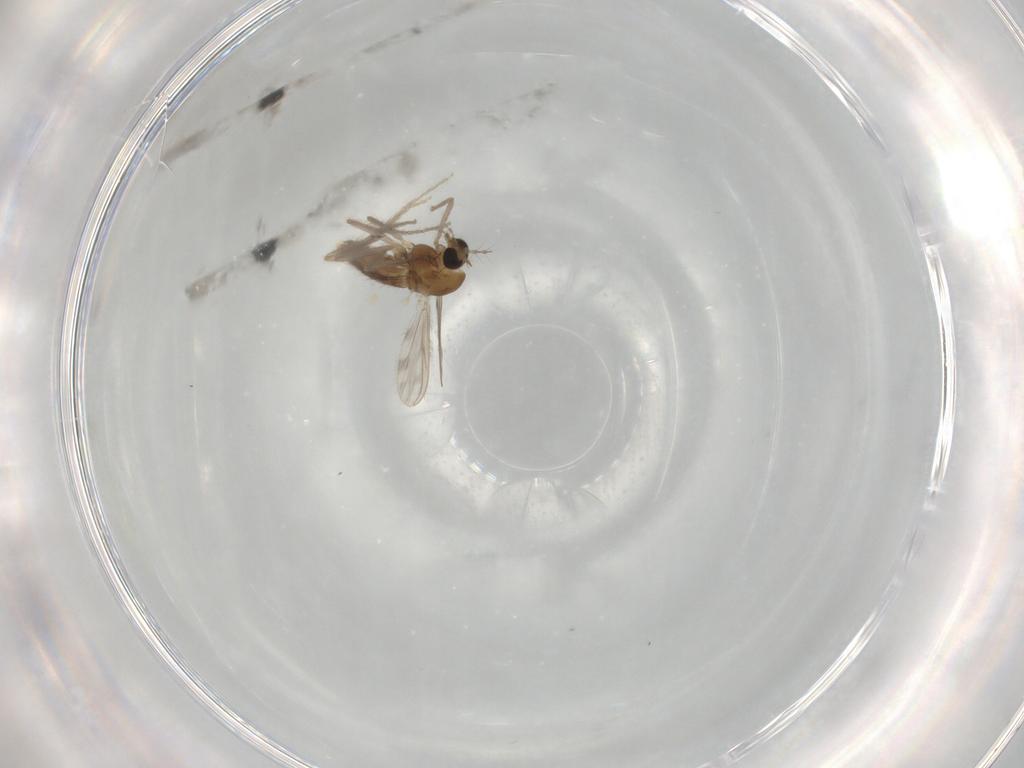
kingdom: Animalia
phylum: Arthropoda
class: Insecta
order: Diptera
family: Chironomidae
